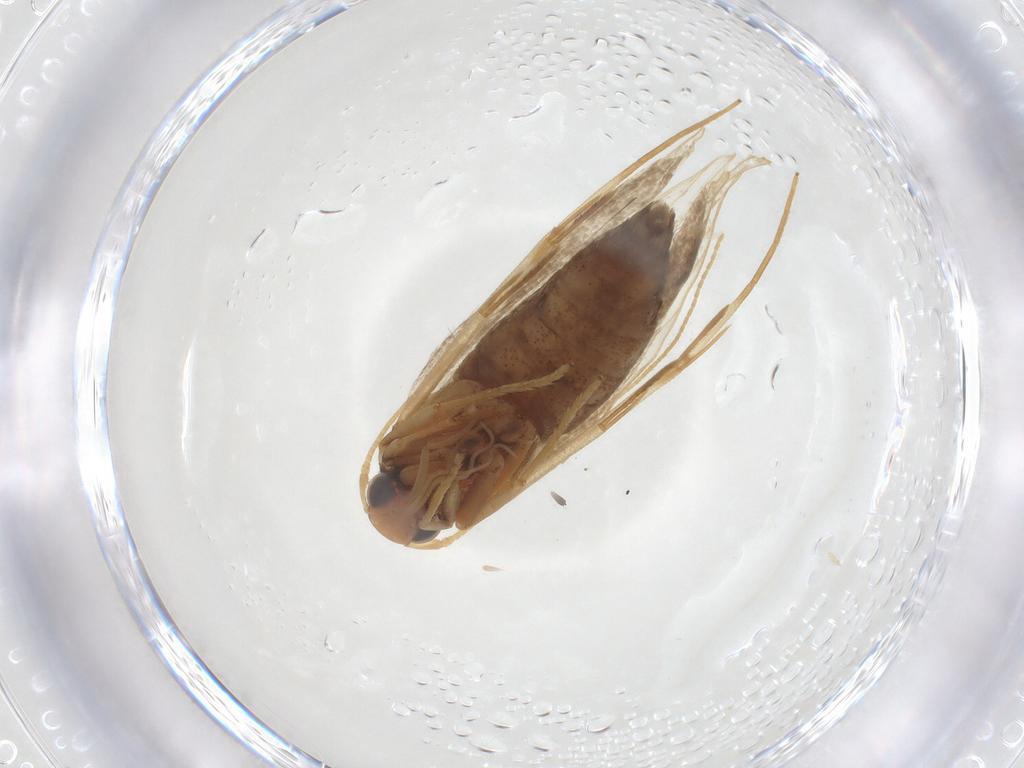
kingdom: Animalia
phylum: Arthropoda
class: Insecta
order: Lepidoptera
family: Lecithoceridae
